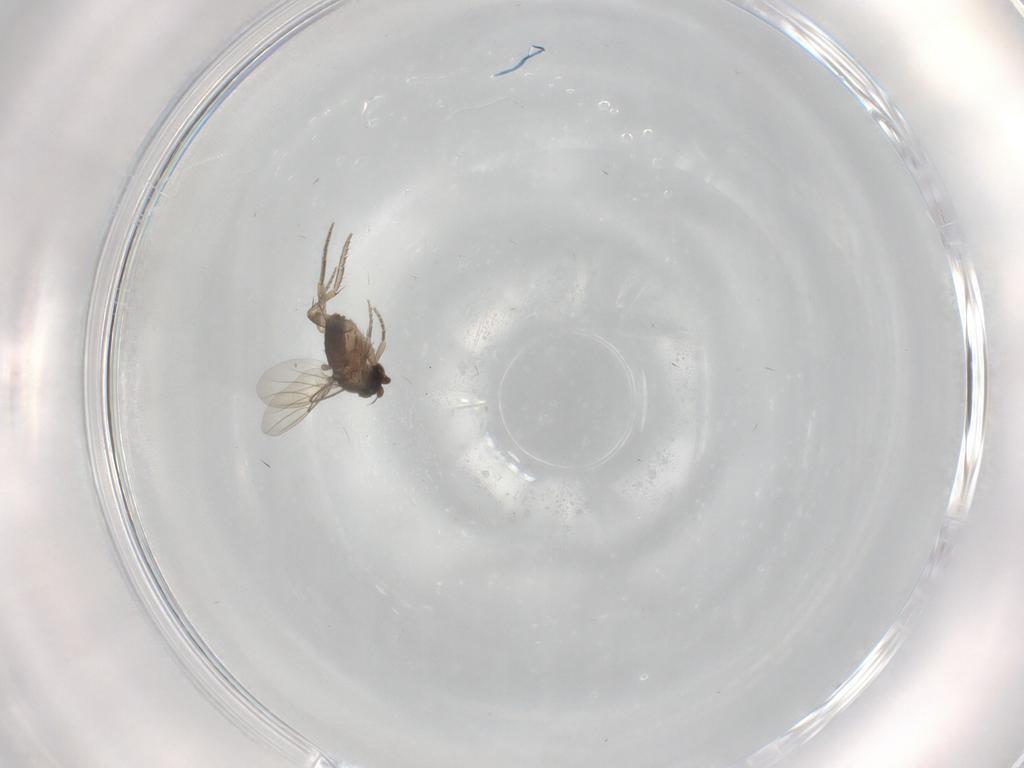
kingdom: Animalia
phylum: Arthropoda
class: Insecta
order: Diptera
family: Phoridae
